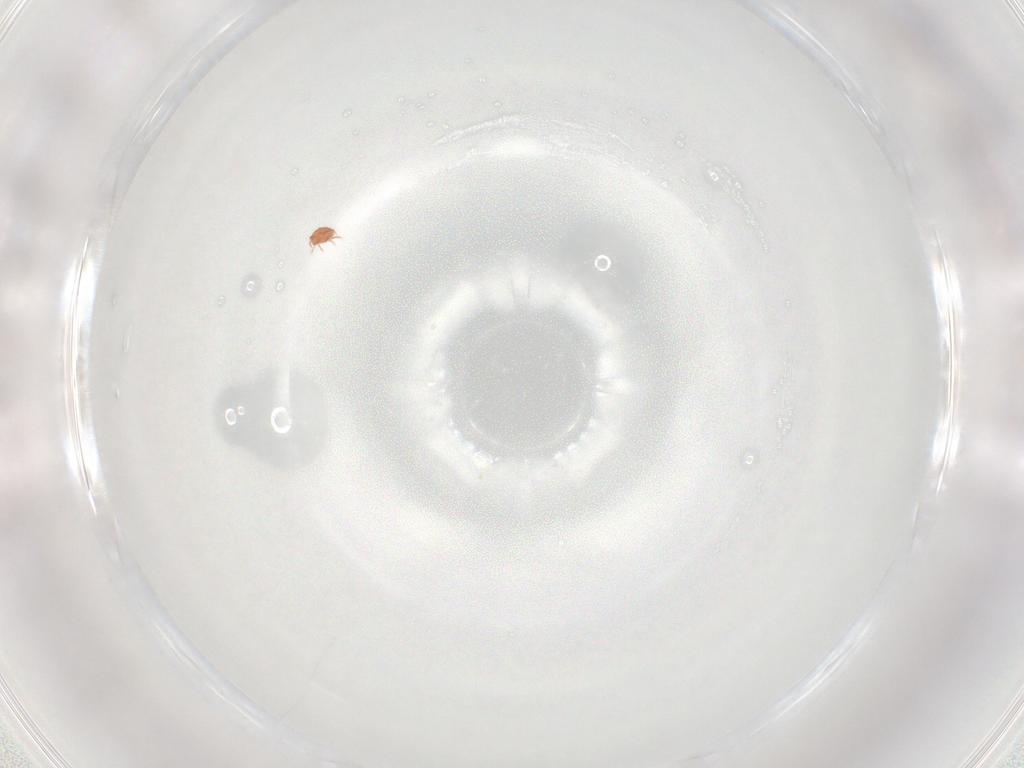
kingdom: Animalia
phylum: Arthropoda
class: Arachnida
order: Trombidiformes
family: Pygmephoridae
